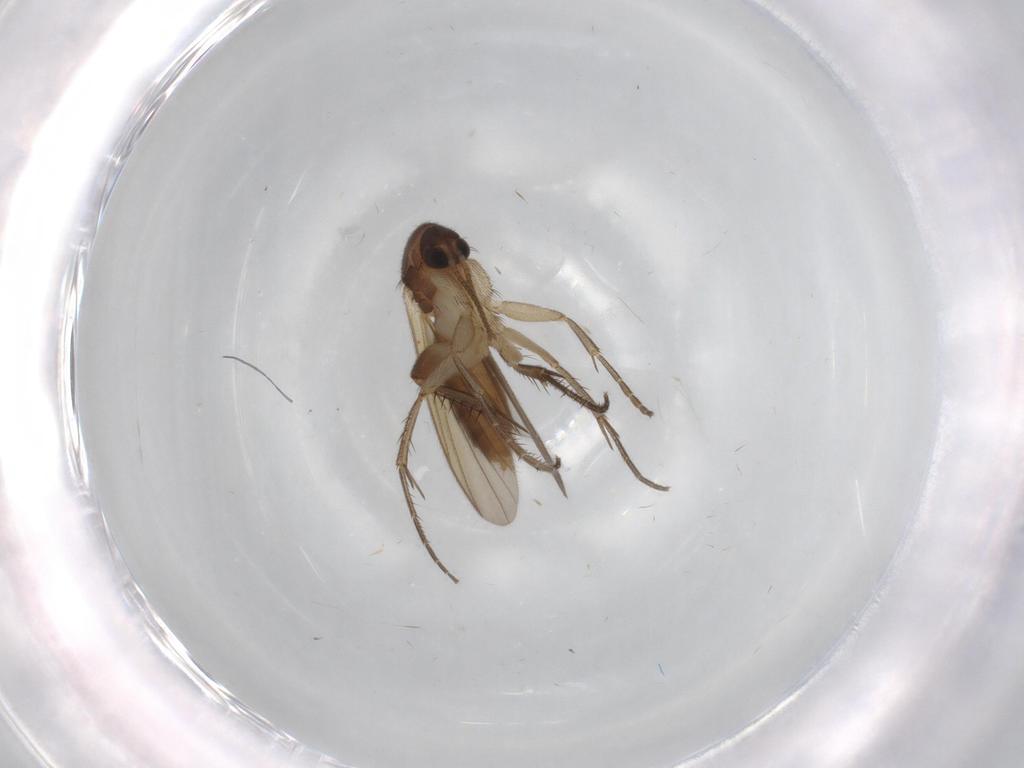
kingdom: Animalia
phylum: Arthropoda
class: Insecta
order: Diptera
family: Mycetophilidae
